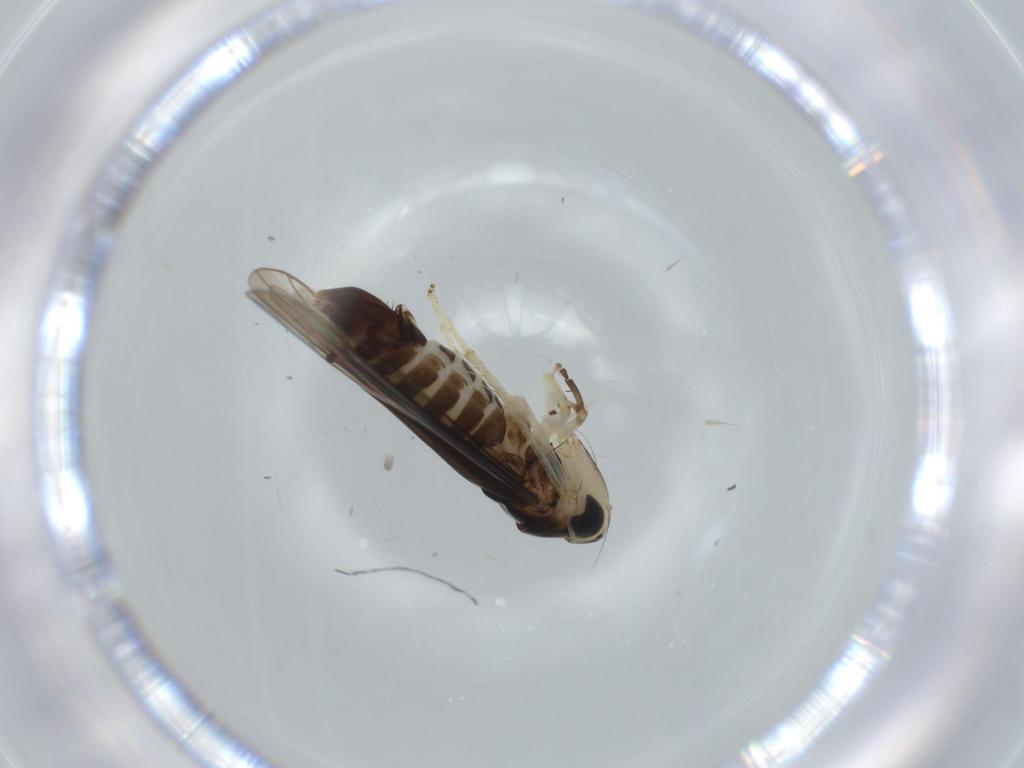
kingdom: Animalia
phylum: Arthropoda
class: Insecta
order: Hemiptera
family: Cicadellidae
